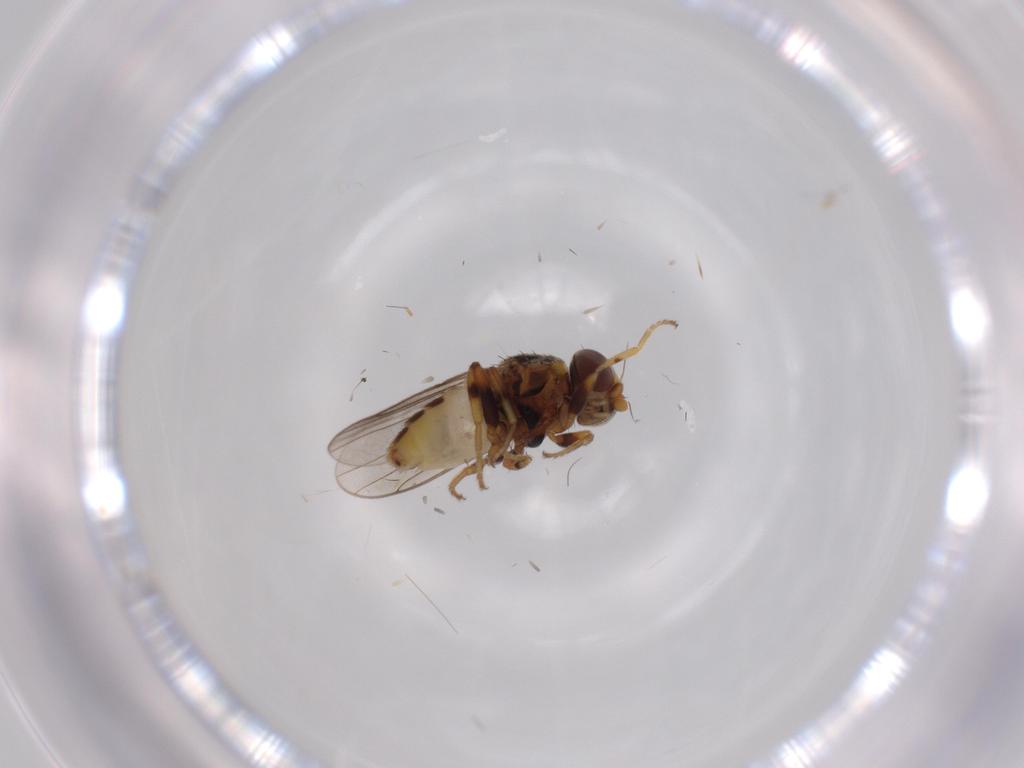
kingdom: Animalia
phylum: Arthropoda
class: Insecta
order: Diptera
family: Chloropidae
